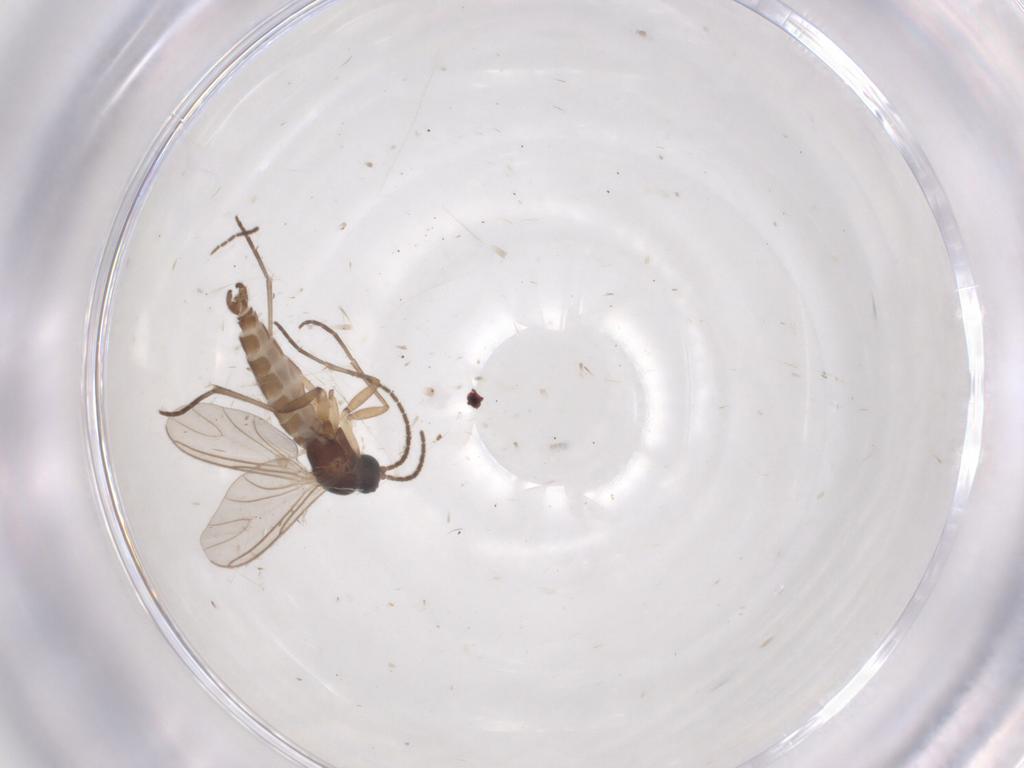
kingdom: Animalia
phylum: Arthropoda
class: Insecta
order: Diptera
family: Sciaridae
